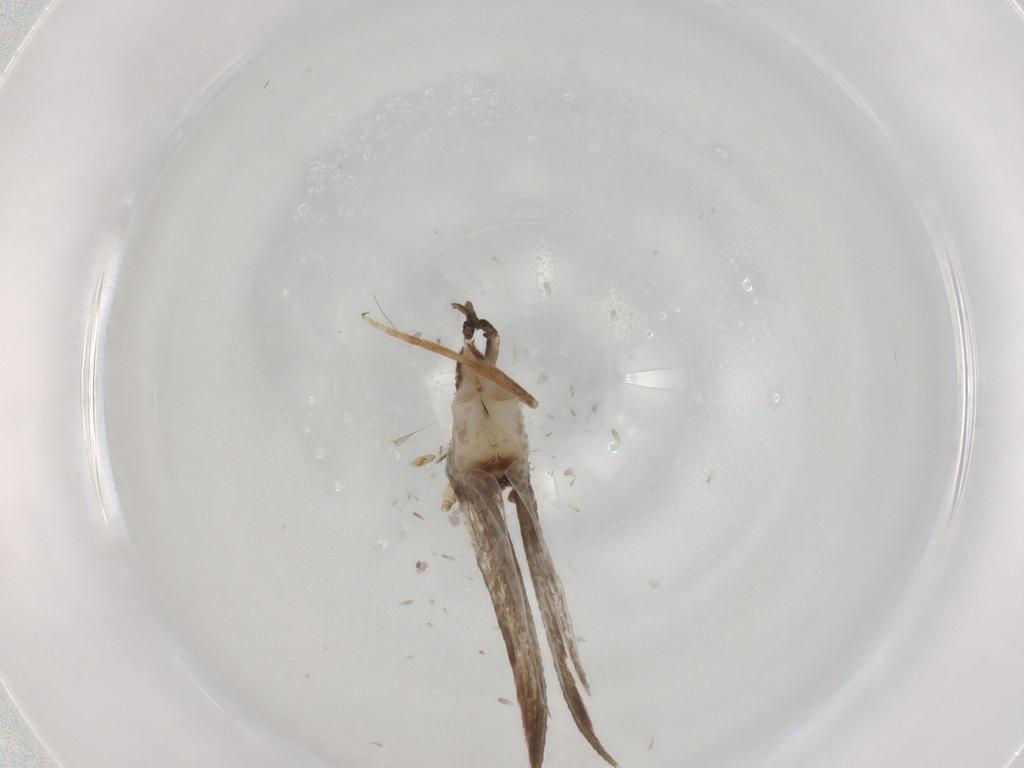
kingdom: Animalia
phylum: Arthropoda
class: Insecta
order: Lepidoptera
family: Coleophoridae
